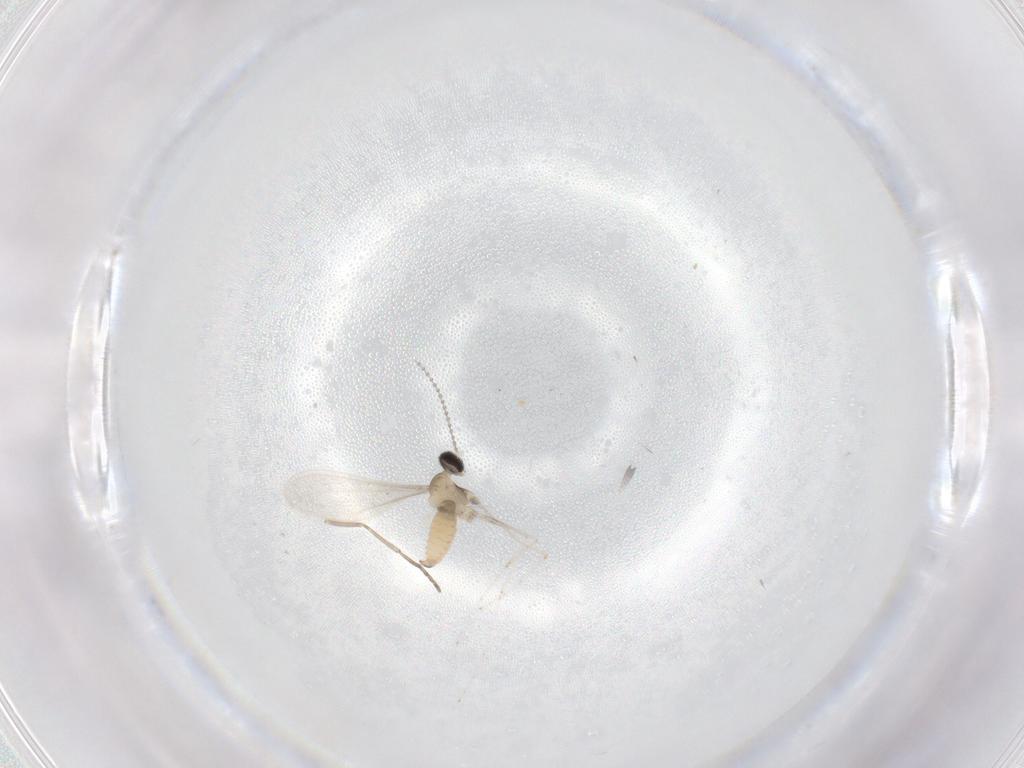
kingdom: Animalia
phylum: Arthropoda
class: Insecta
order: Diptera
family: Cecidomyiidae
